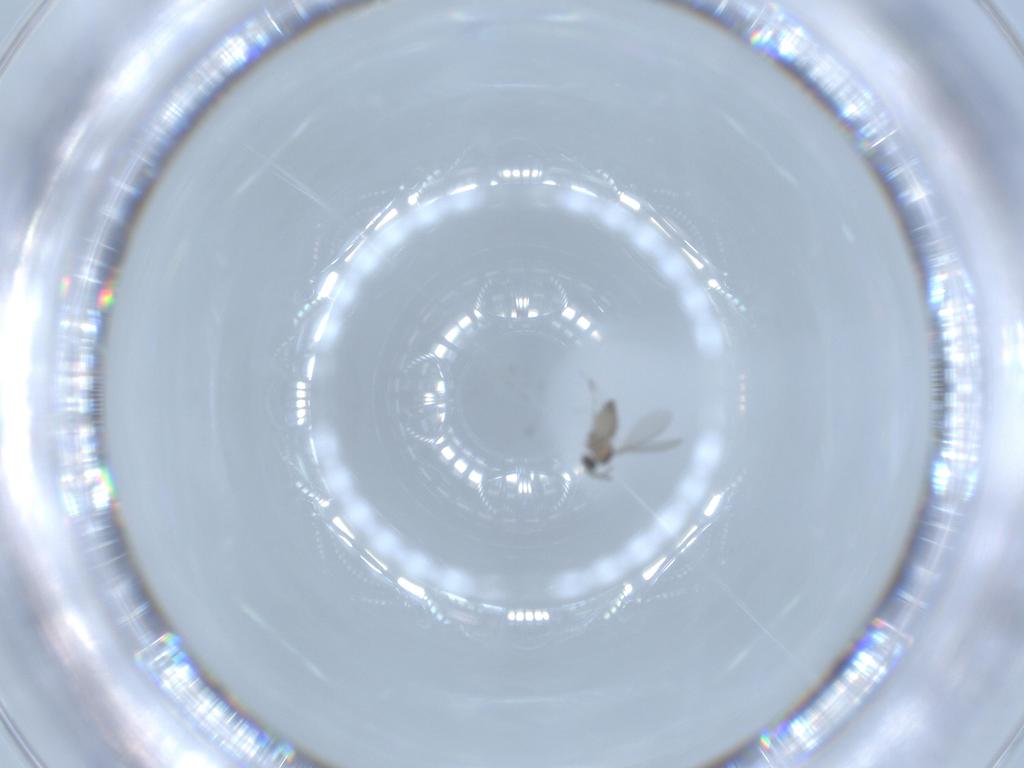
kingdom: Animalia
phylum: Arthropoda
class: Insecta
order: Diptera
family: Cecidomyiidae
